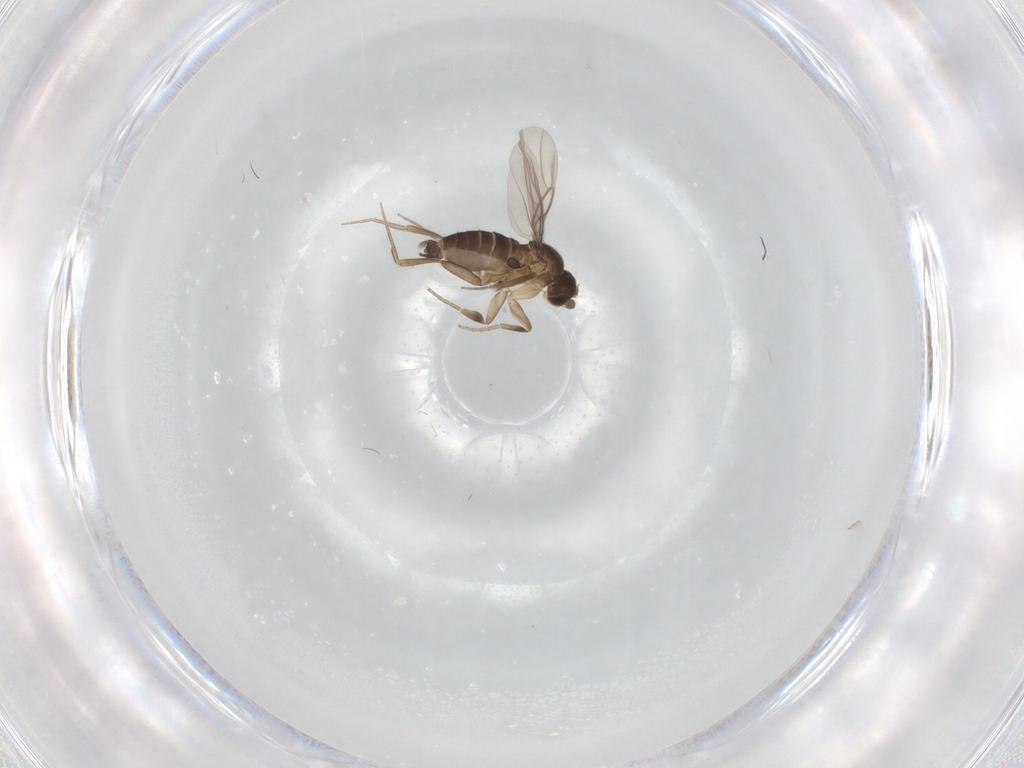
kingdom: Animalia
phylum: Arthropoda
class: Insecta
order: Diptera
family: Phoridae
